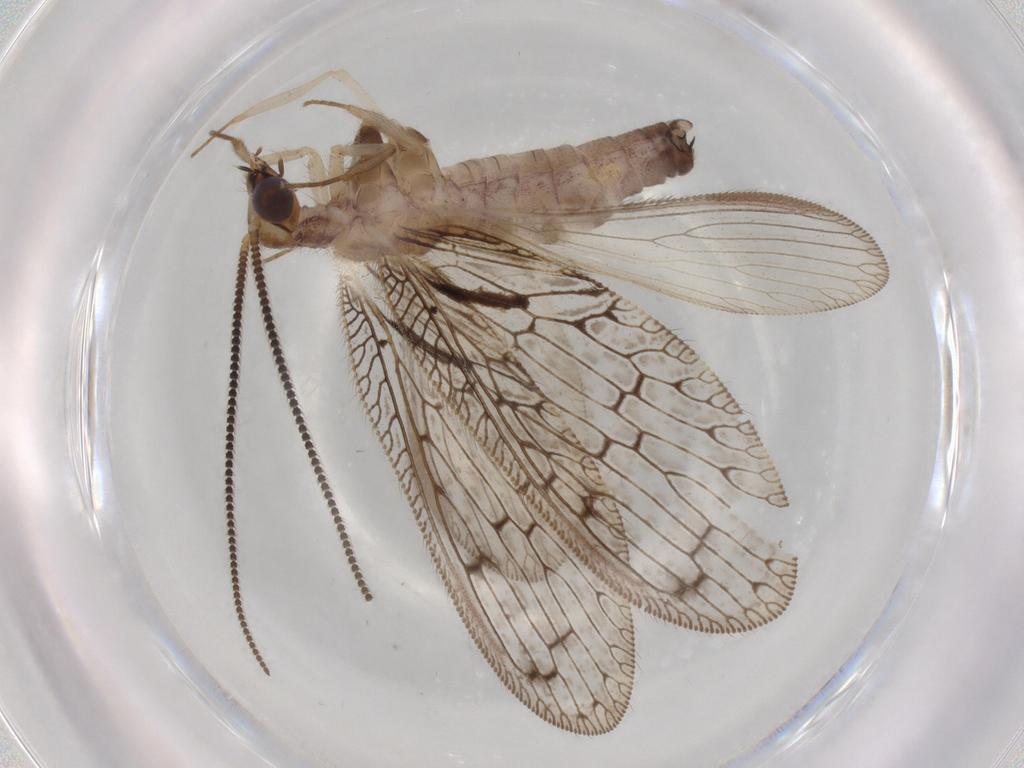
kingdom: Animalia
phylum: Arthropoda
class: Insecta
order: Neuroptera
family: Hemerobiidae
